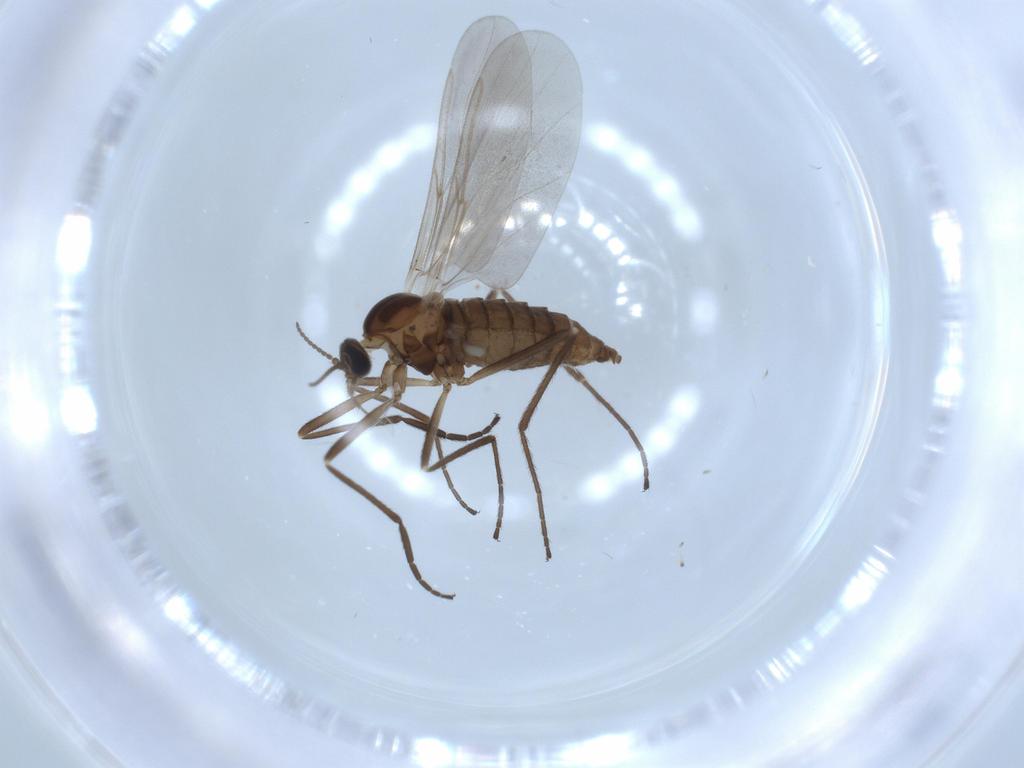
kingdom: Animalia
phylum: Arthropoda
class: Insecta
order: Diptera
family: Cecidomyiidae
